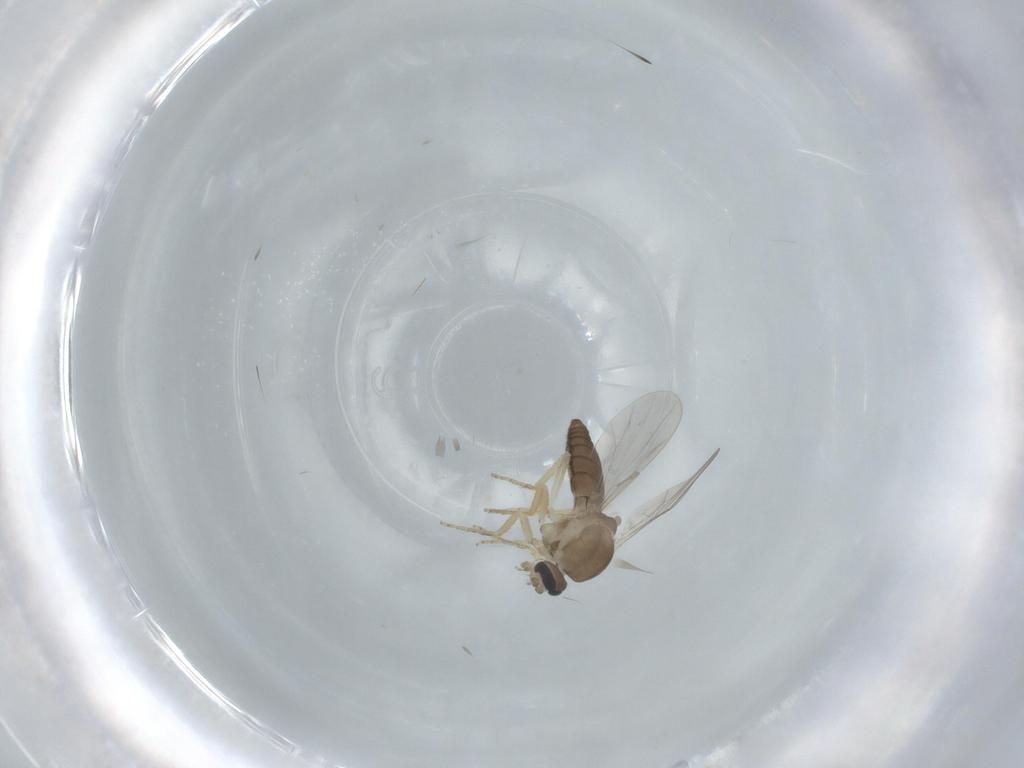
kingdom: Animalia
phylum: Arthropoda
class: Insecta
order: Diptera
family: Ceratopogonidae
